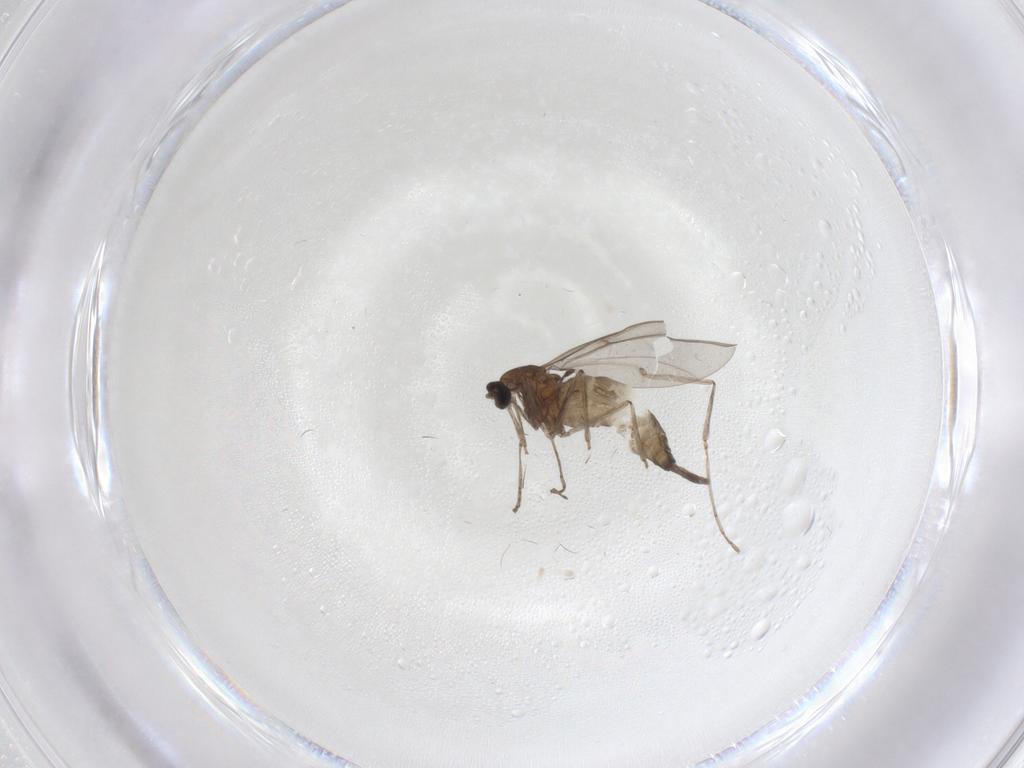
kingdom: Animalia
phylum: Arthropoda
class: Insecta
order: Diptera
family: Cecidomyiidae
